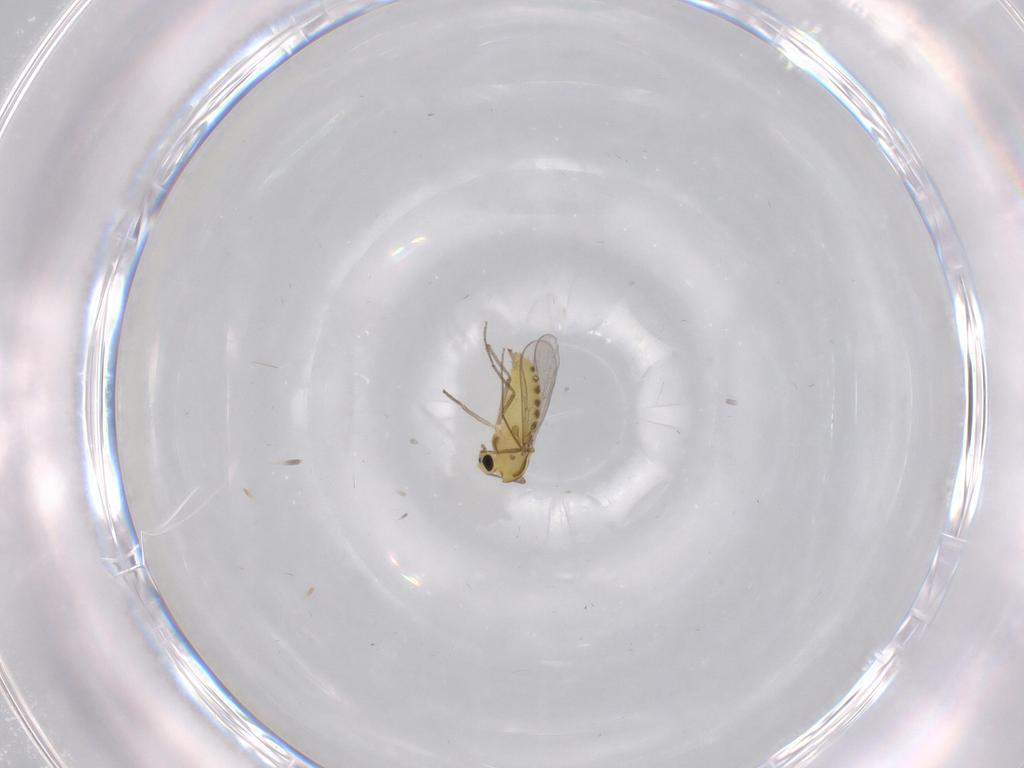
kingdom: Animalia
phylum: Arthropoda
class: Insecta
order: Diptera
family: Chironomidae
